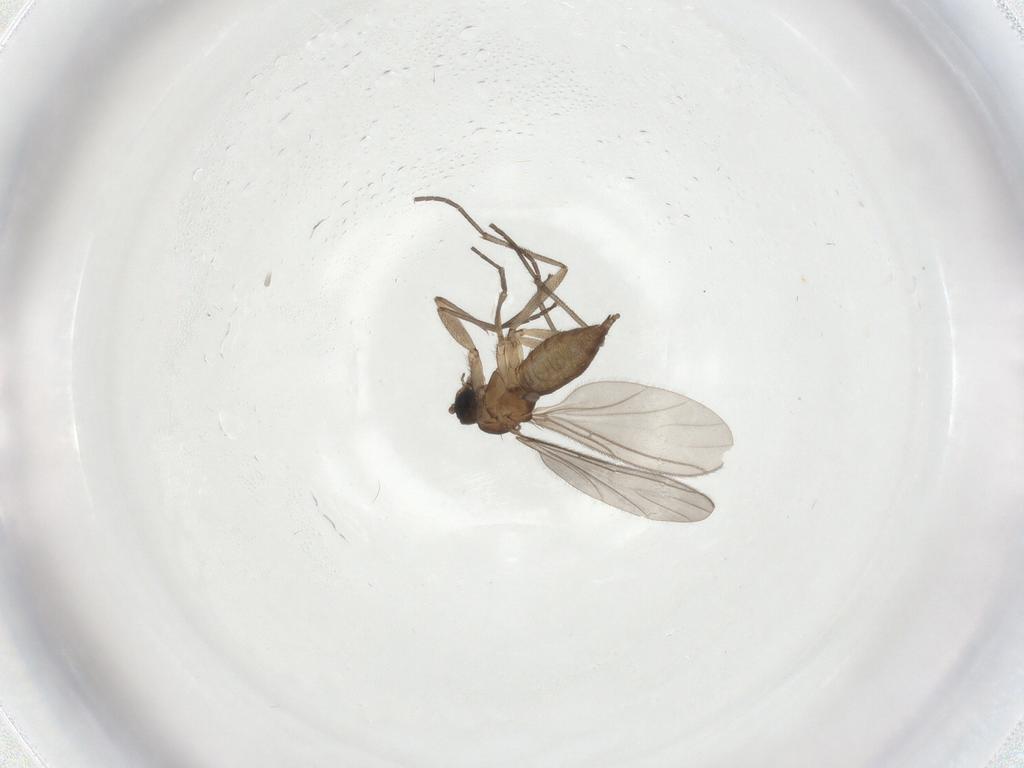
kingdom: Animalia
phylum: Arthropoda
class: Insecta
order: Diptera
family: Sciaridae
